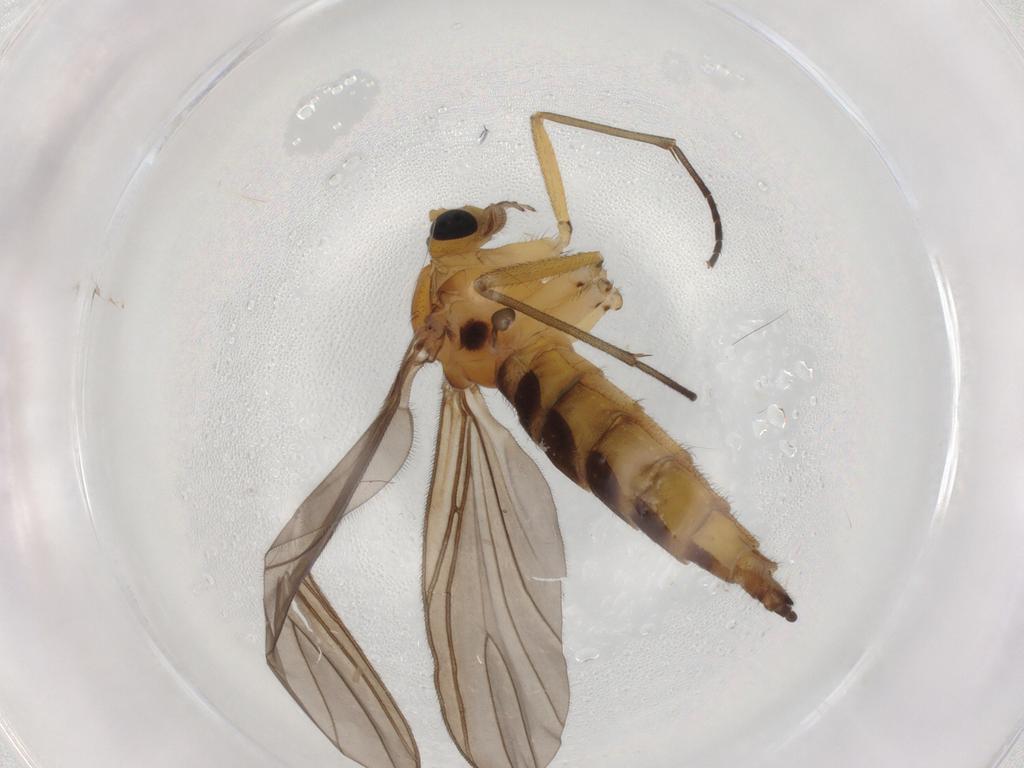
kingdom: Animalia
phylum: Arthropoda
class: Insecta
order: Diptera
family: Sciaridae
